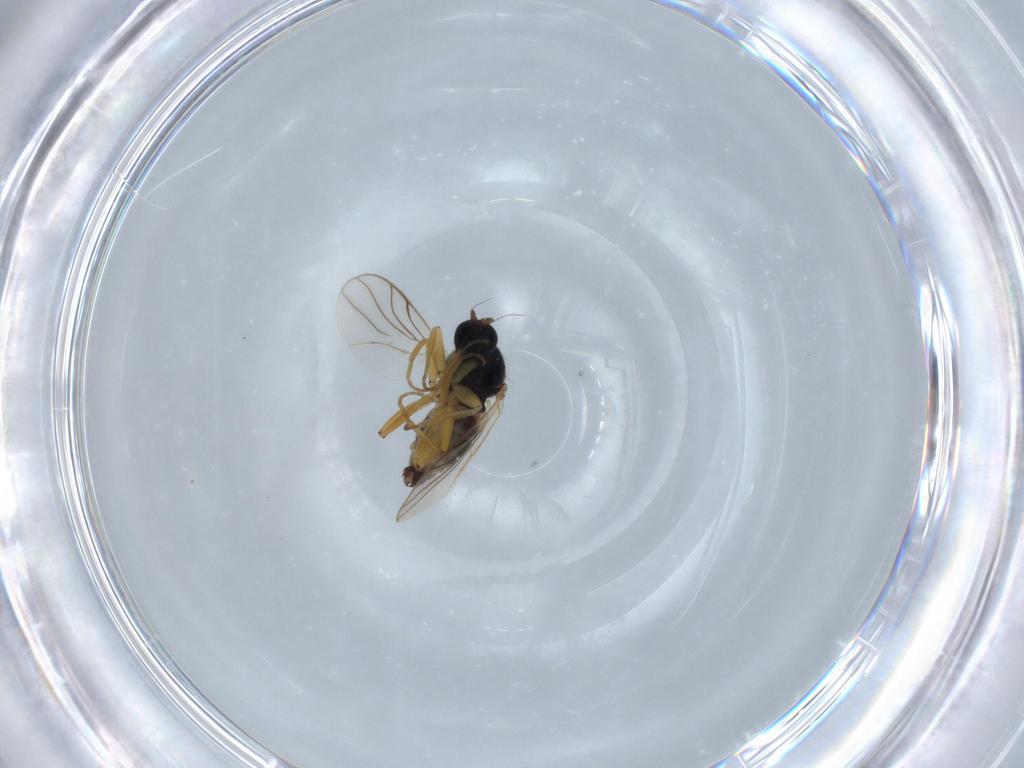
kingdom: Animalia
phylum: Arthropoda
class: Insecta
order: Diptera
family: Hybotidae
